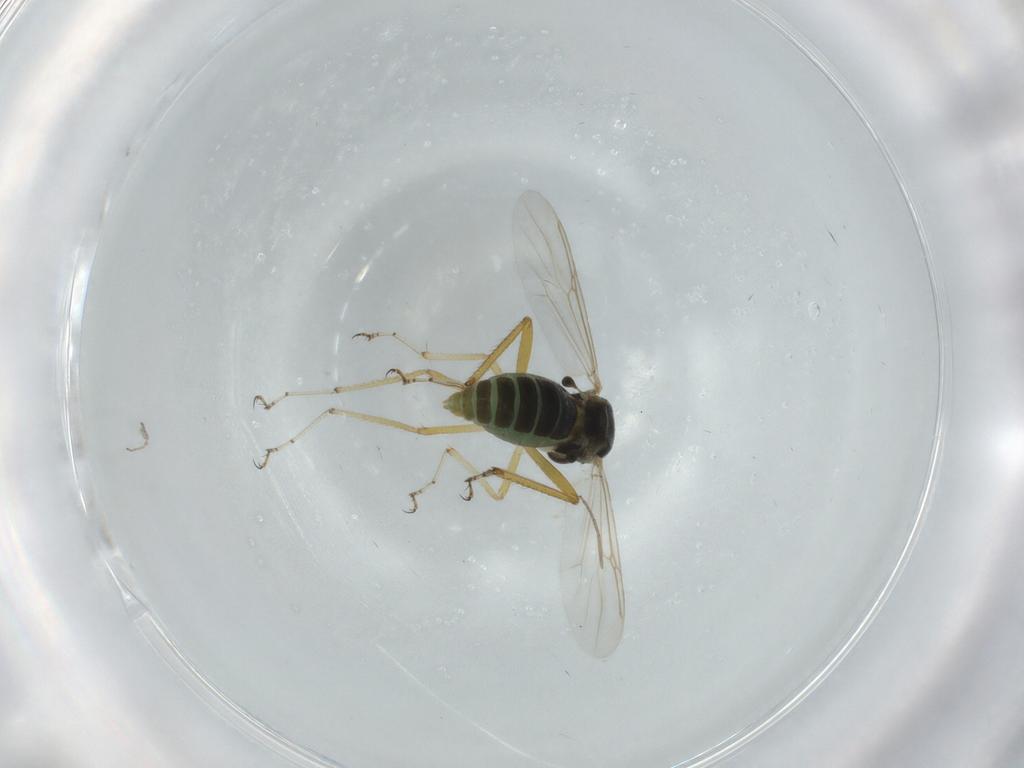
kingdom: Animalia
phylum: Arthropoda
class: Insecta
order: Diptera
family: Ceratopogonidae
